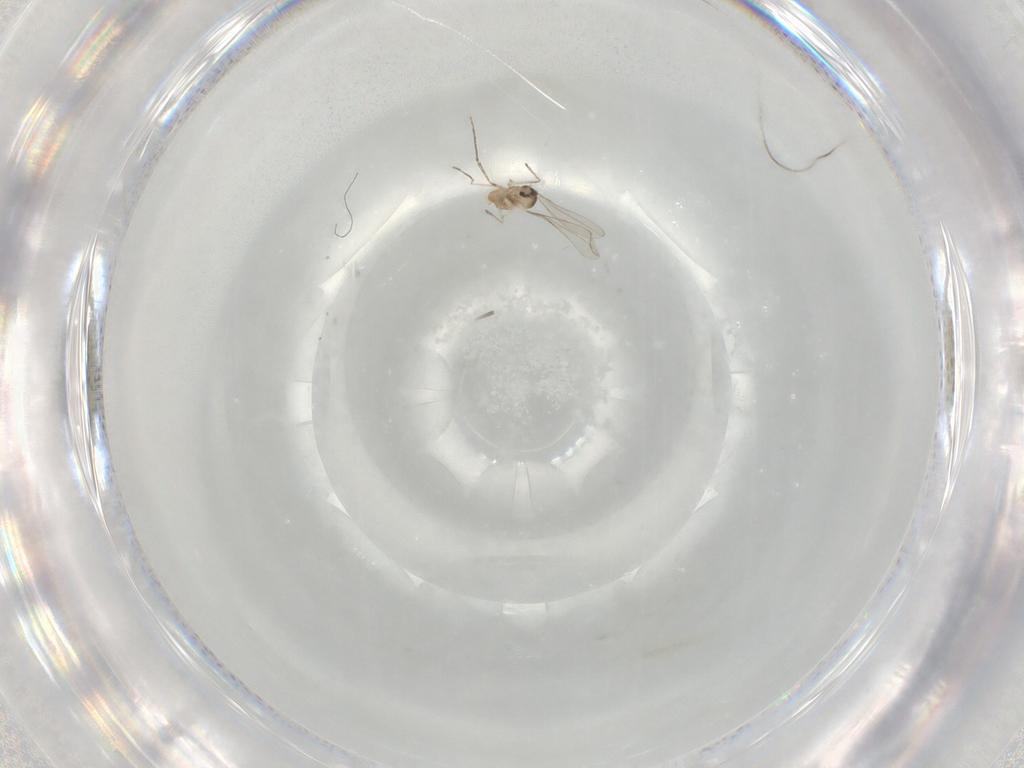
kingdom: Animalia
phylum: Arthropoda
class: Insecta
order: Diptera
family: Cecidomyiidae
